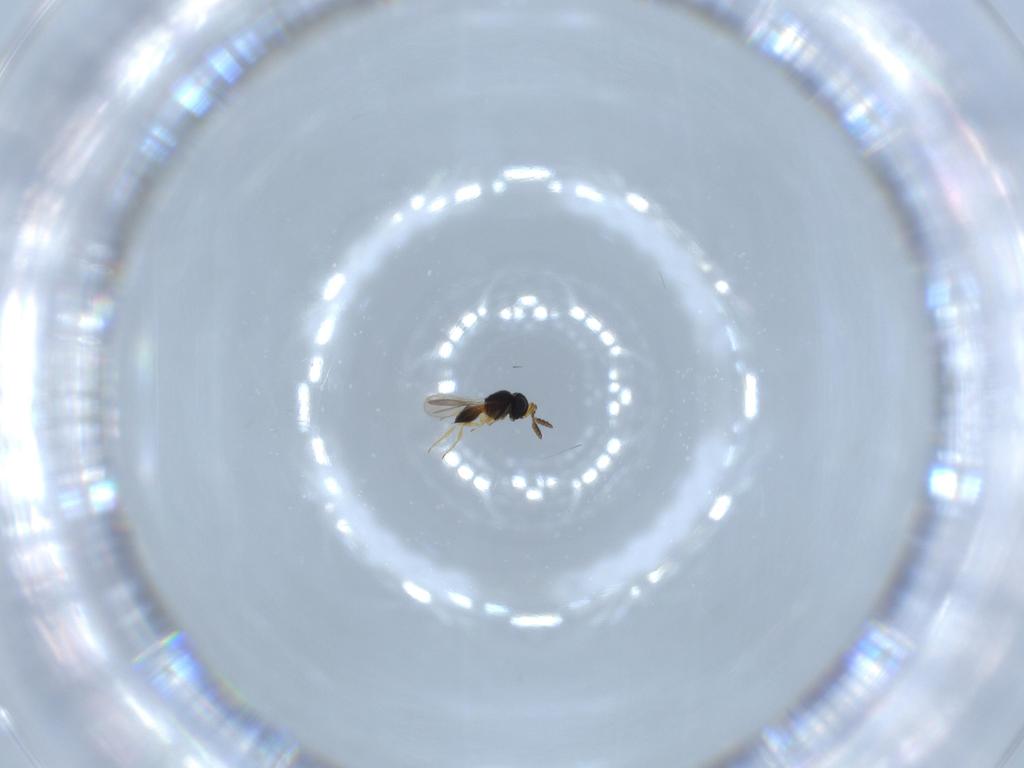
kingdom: Animalia
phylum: Arthropoda
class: Insecta
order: Hymenoptera
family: Scelionidae
